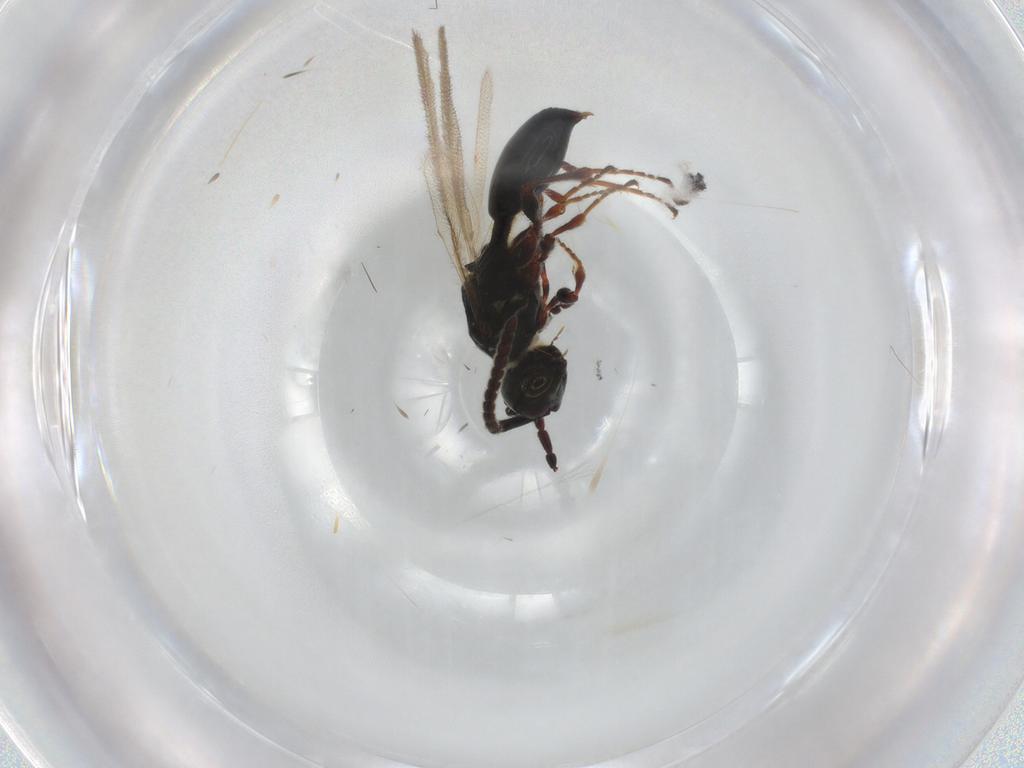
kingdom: Animalia
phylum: Arthropoda
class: Insecta
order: Hymenoptera
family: Diapriidae
